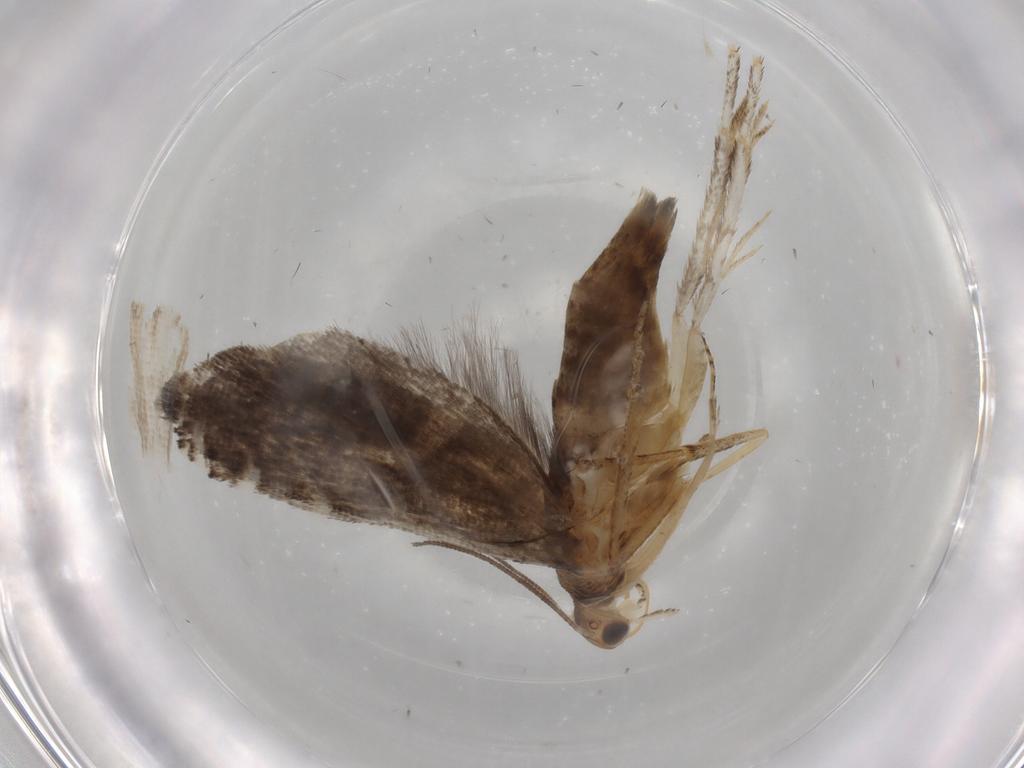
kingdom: Animalia
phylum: Arthropoda
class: Insecta
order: Lepidoptera
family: Glyphipterigidae
